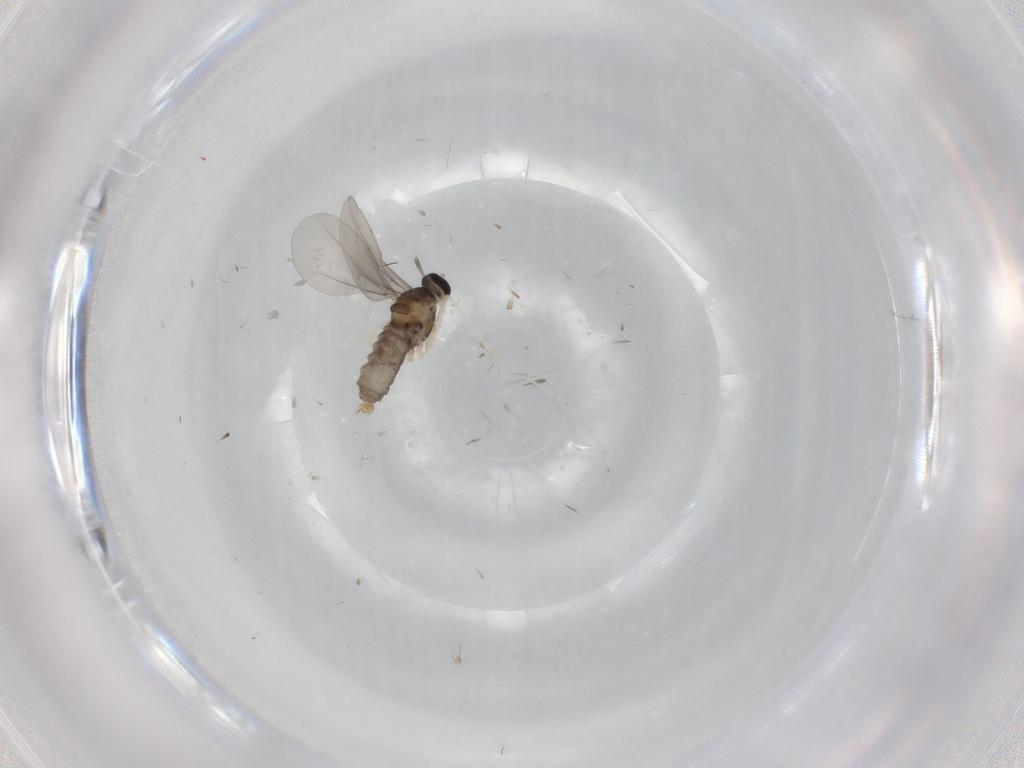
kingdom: Animalia
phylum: Arthropoda
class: Insecta
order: Diptera
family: Cecidomyiidae
